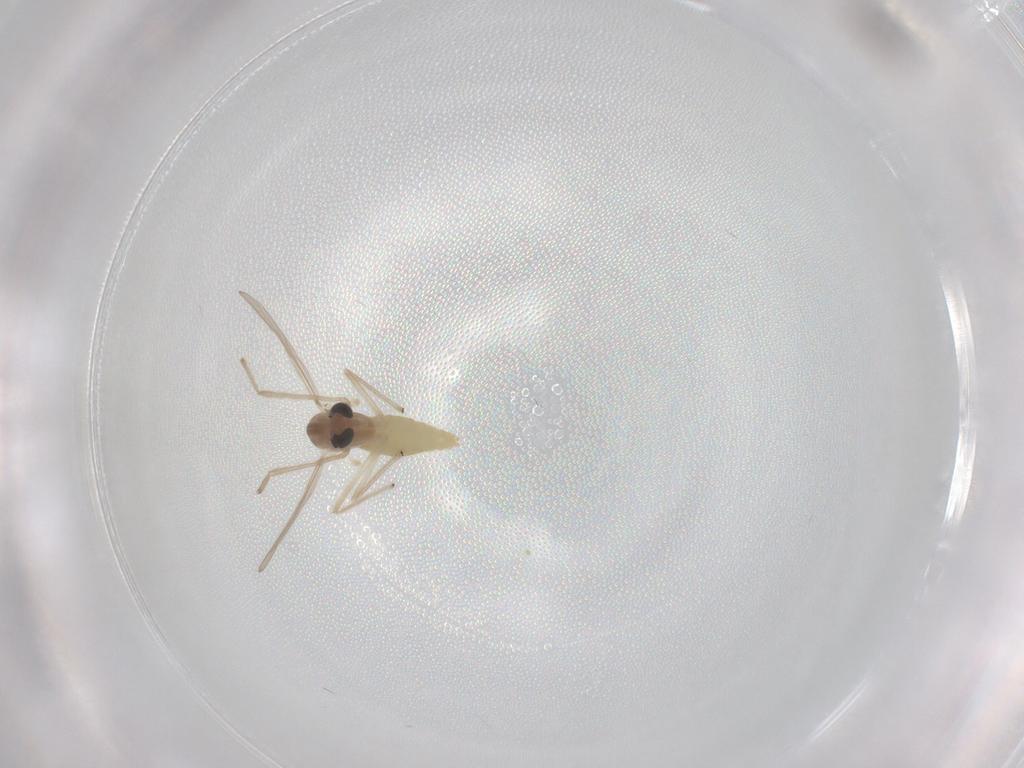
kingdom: Animalia
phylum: Arthropoda
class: Insecta
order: Diptera
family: Chironomidae
